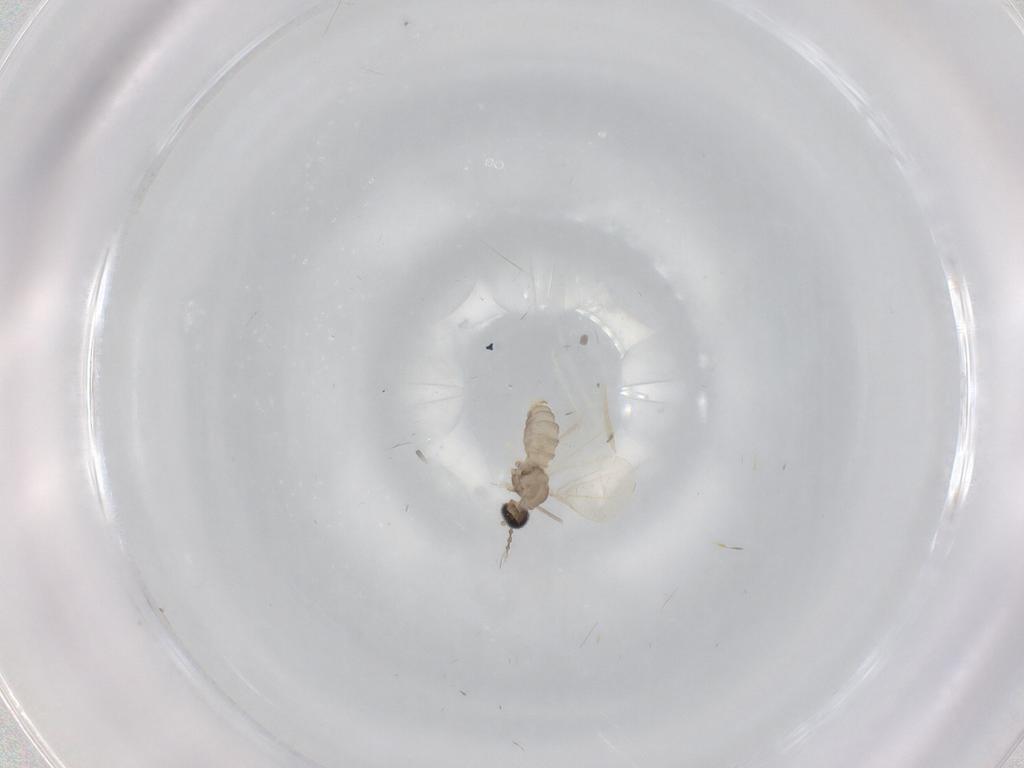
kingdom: Animalia
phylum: Arthropoda
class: Insecta
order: Diptera
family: Cecidomyiidae
